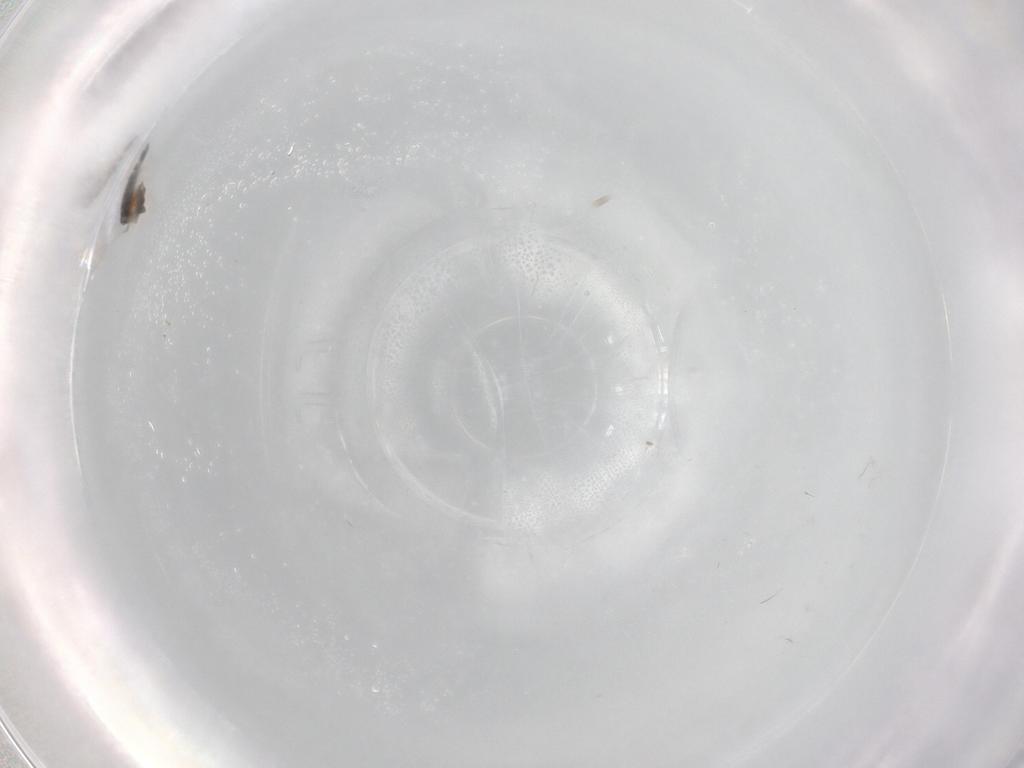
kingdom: Animalia
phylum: Arthropoda
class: Insecta
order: Diptera
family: Chironomidae
